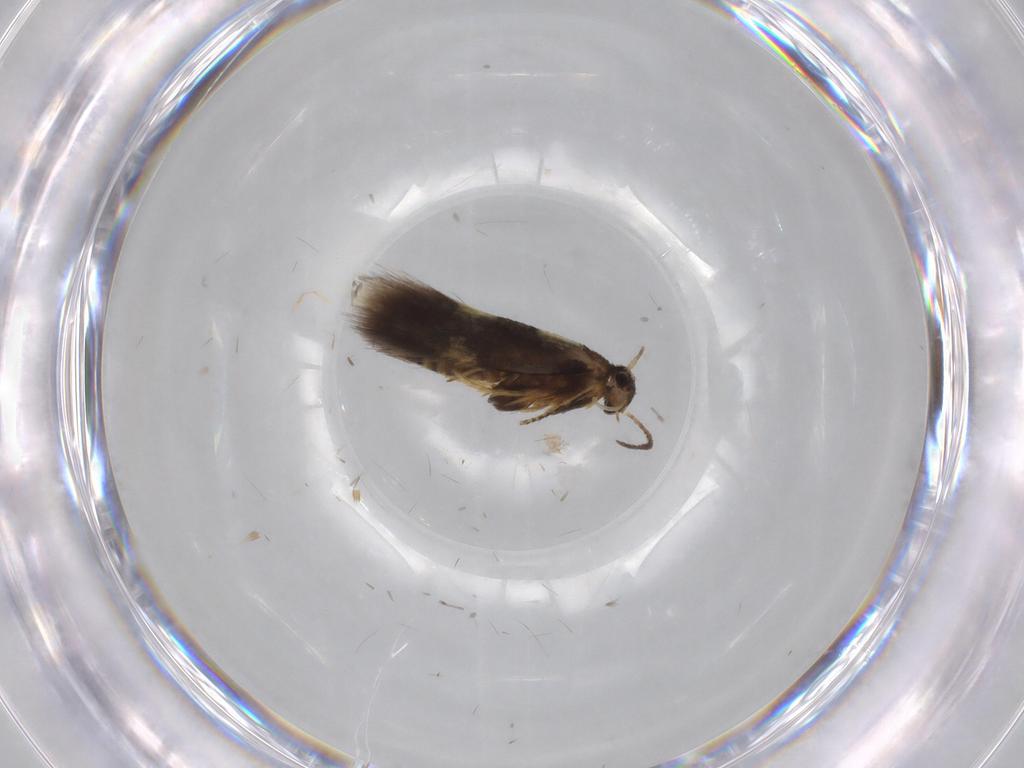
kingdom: Animalia
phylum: Arthropoda
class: Insecta
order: Lepidoptera
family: Heliozelidae
